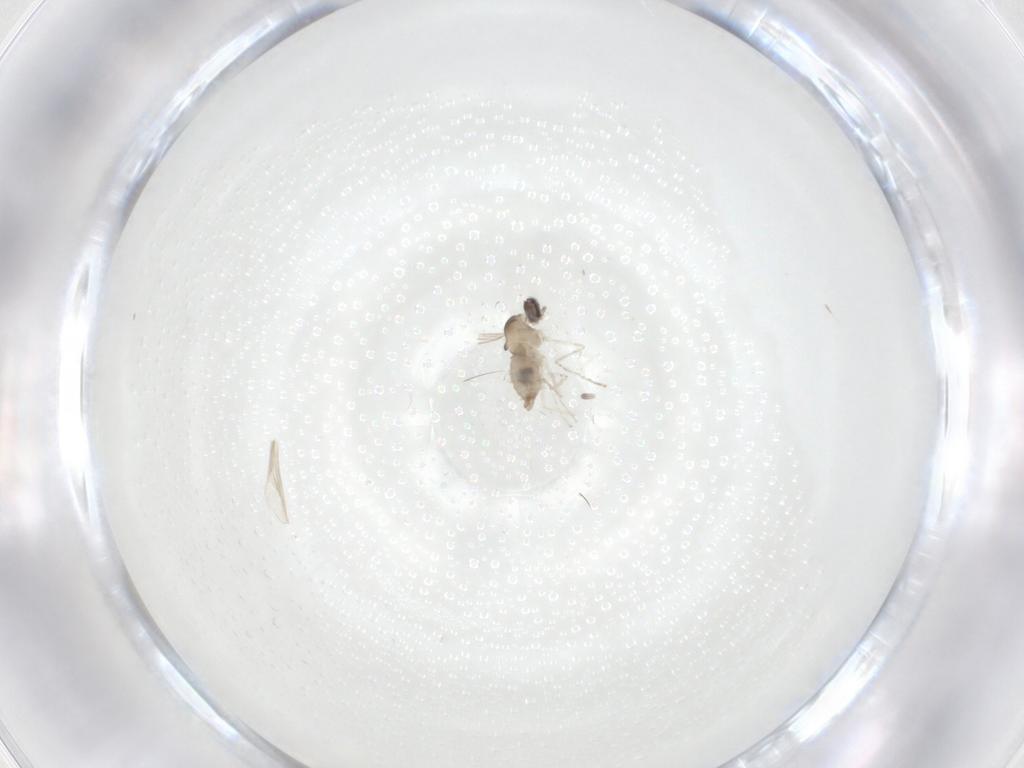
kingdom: Animalia
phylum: Arthropoda
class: Insecta
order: Diptera
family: Cecidomyiidae
